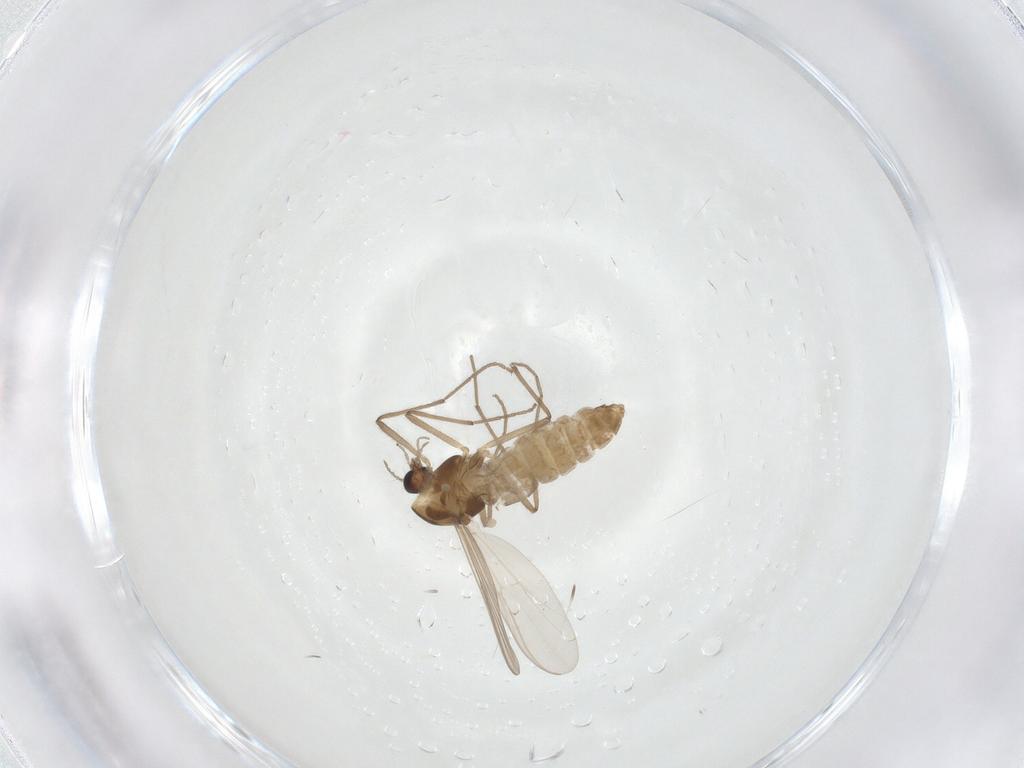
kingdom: Animalia
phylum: Arthropoda
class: Insecta
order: Diptera
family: Chironomidae
